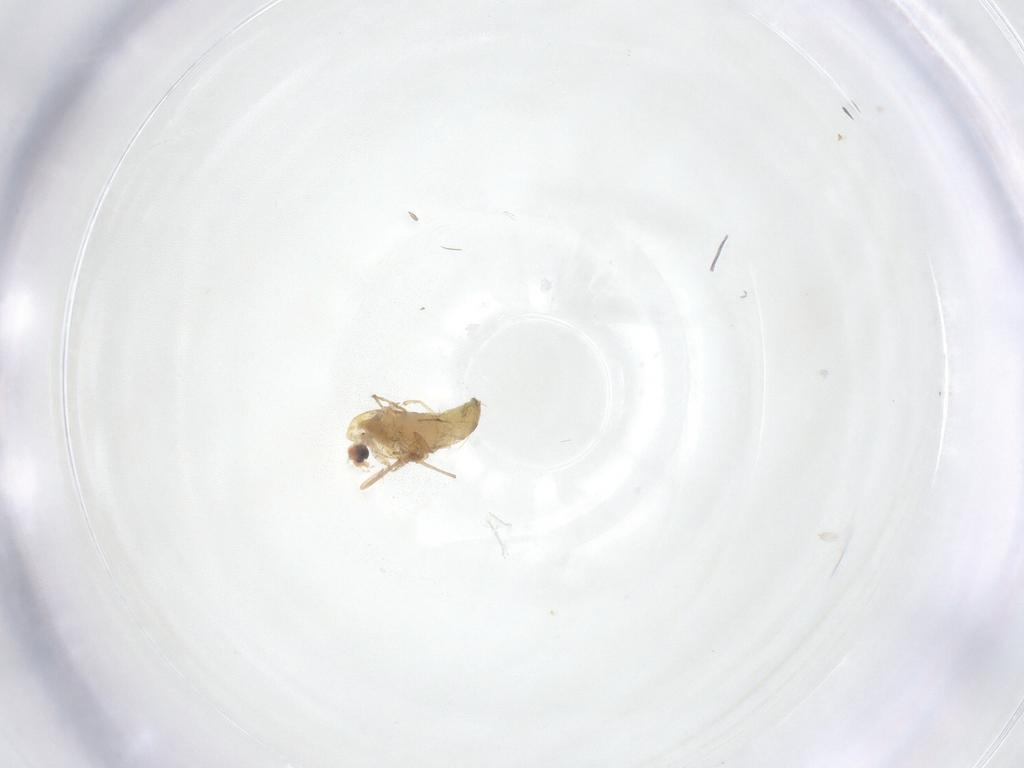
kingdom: Animalia
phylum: Arthropoda
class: Insecta
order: Diptera
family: Chironomidae
